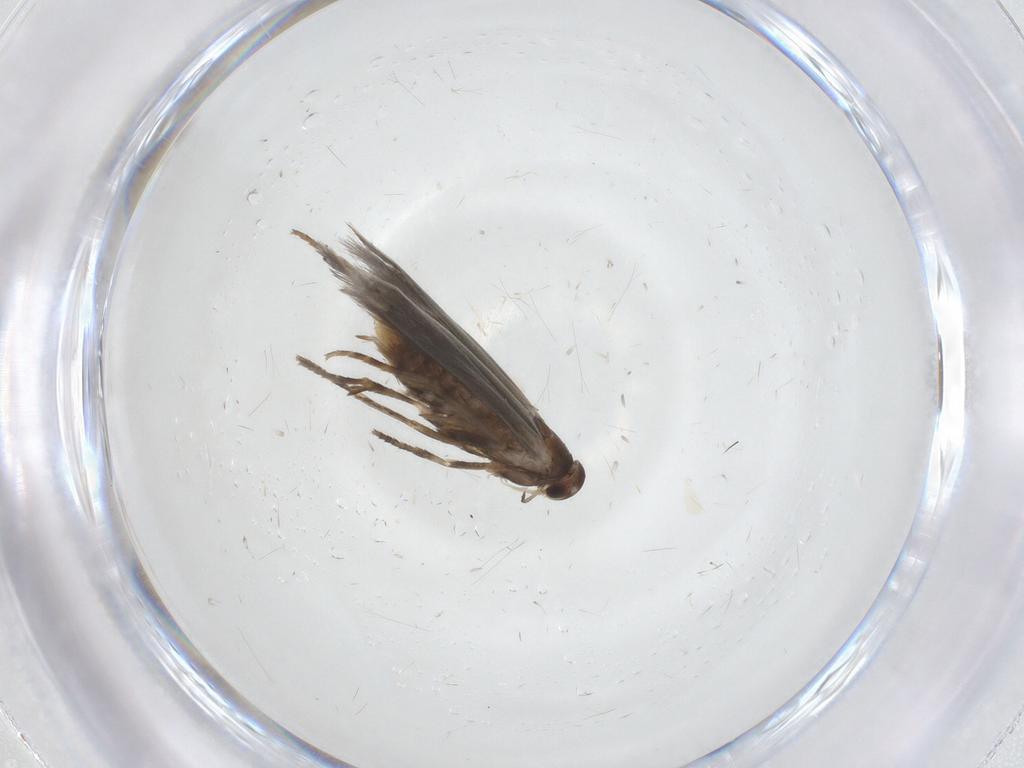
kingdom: Animalia
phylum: Arthropoda
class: Insecta
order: Lepidoptera
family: Elachistidae
